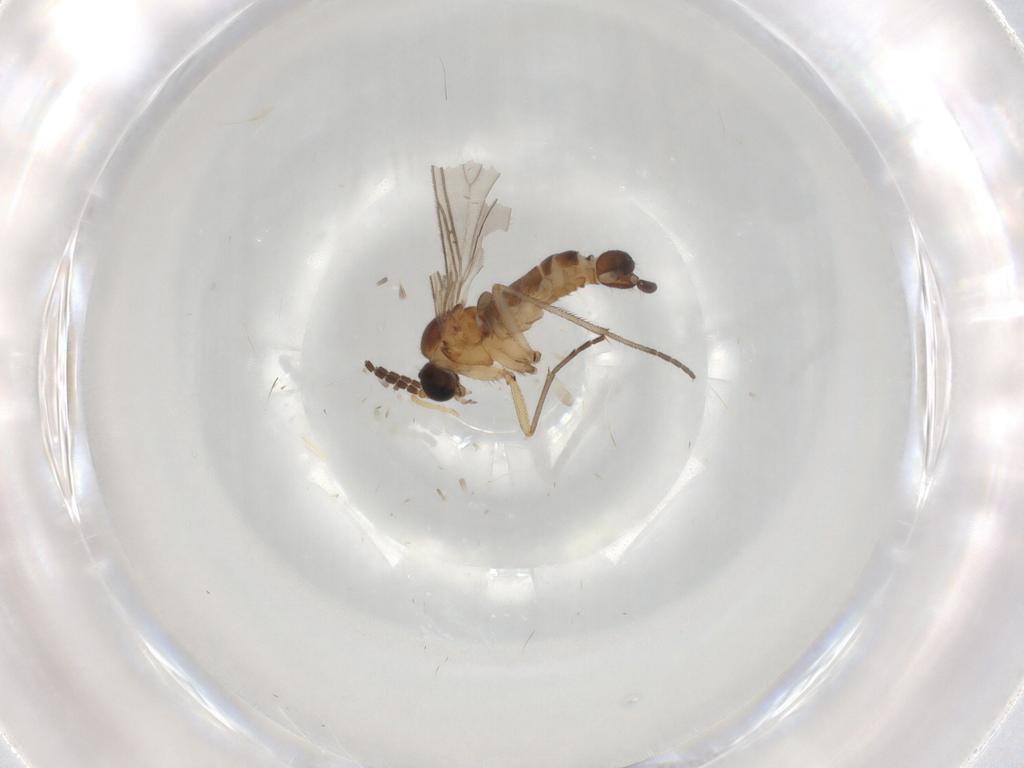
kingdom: Animalia
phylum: Arthropoda
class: Insecta
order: Diptera
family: Sciaridae
